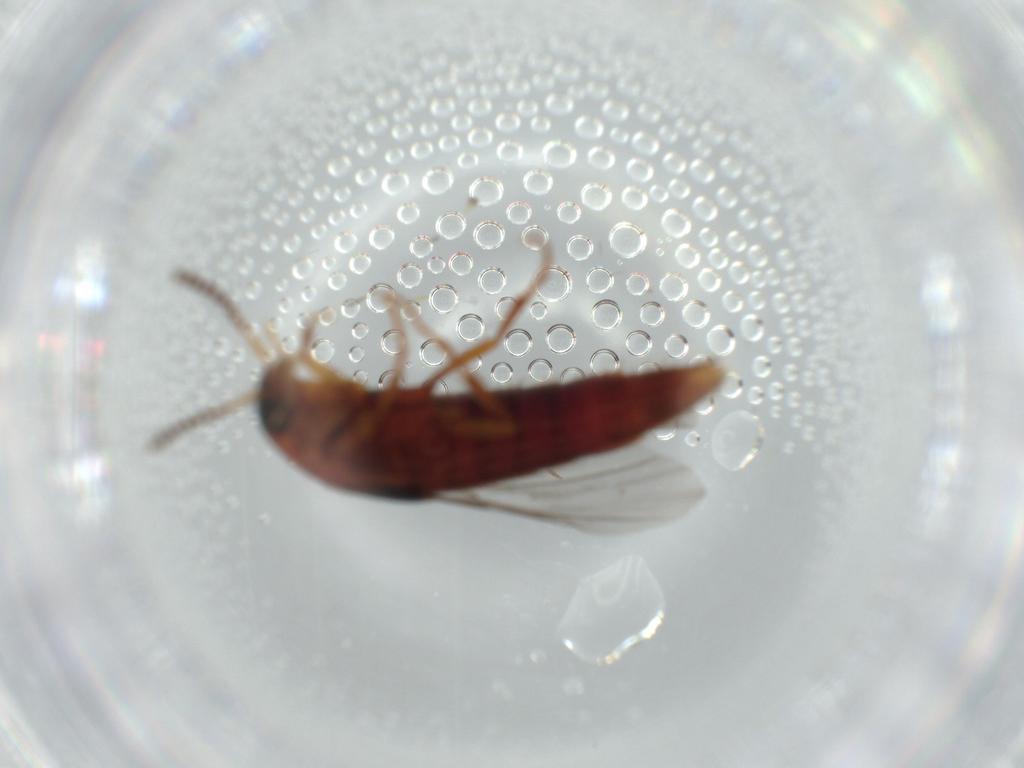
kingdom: Animalia
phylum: Arthropoda
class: Insecta
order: Coleoptera
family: Staphylinidae
